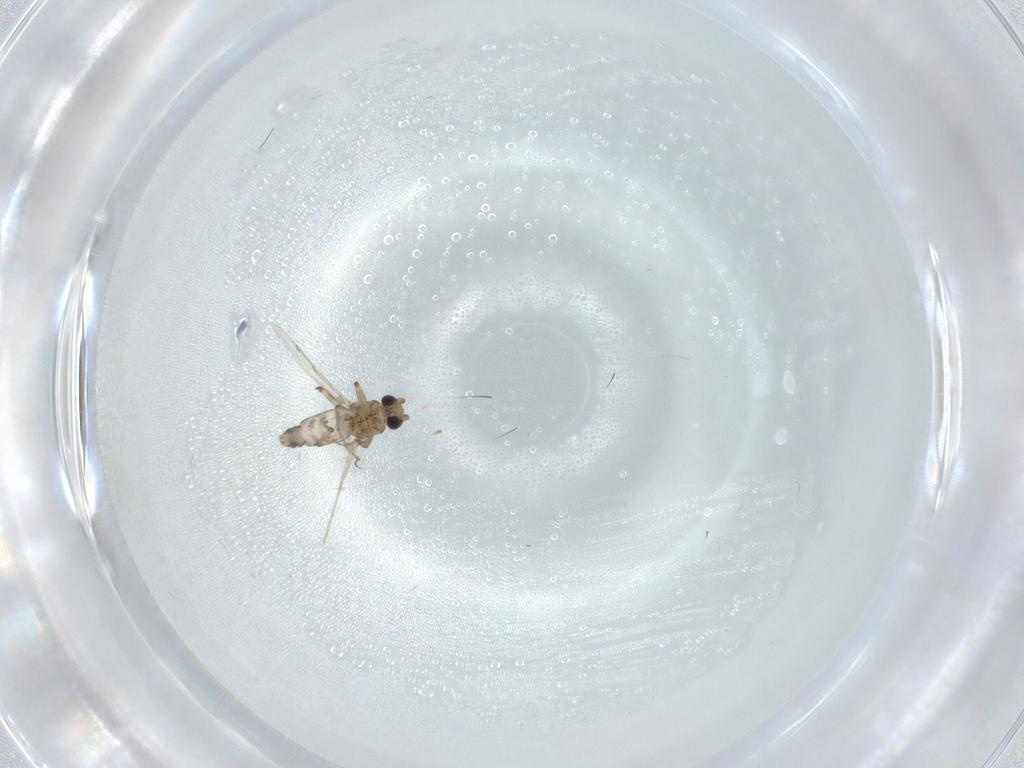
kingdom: Animalia
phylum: Arthropoda
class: Insecta
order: Diptera
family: Ceratopogonidae
